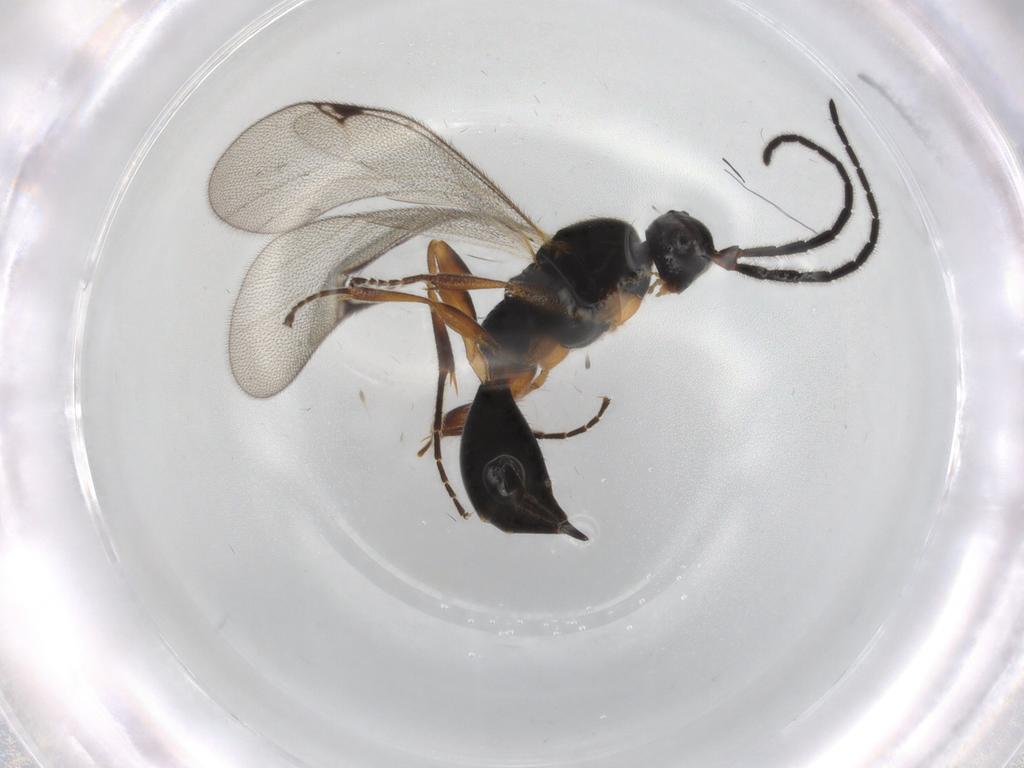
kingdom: Animalia
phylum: Arthropoda
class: Insecta
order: Hymenoptera
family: Proctotrupidae
